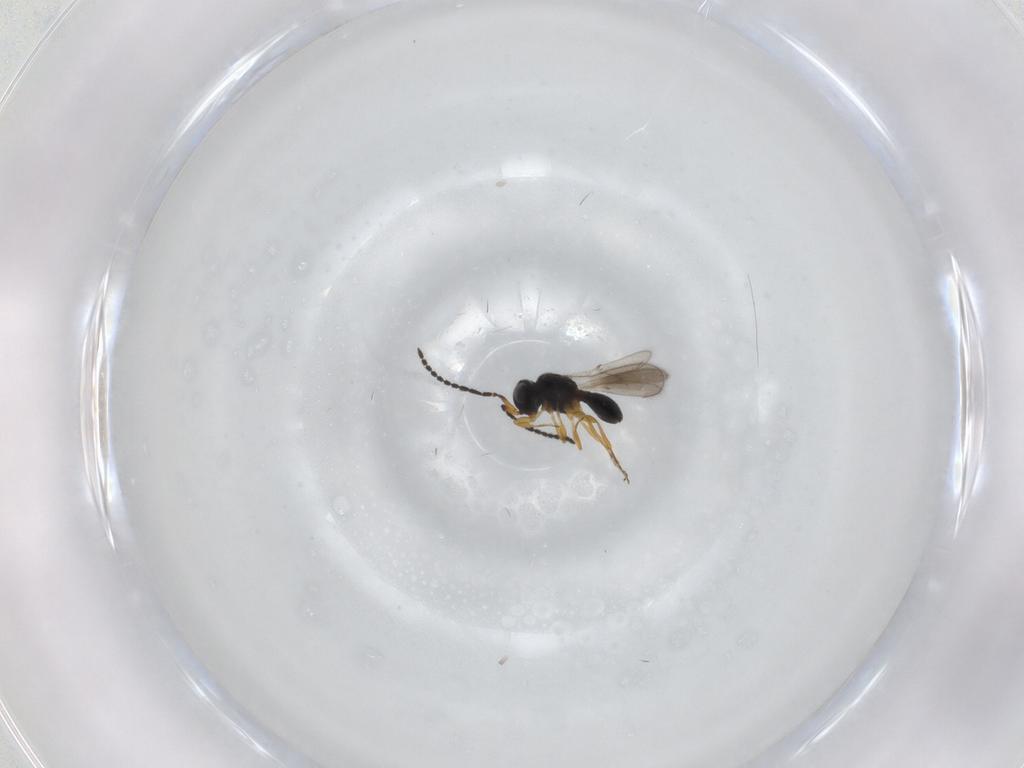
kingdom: Animalia
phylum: Arthropoda
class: Insecta
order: Hymenoptera
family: Scelionidae
